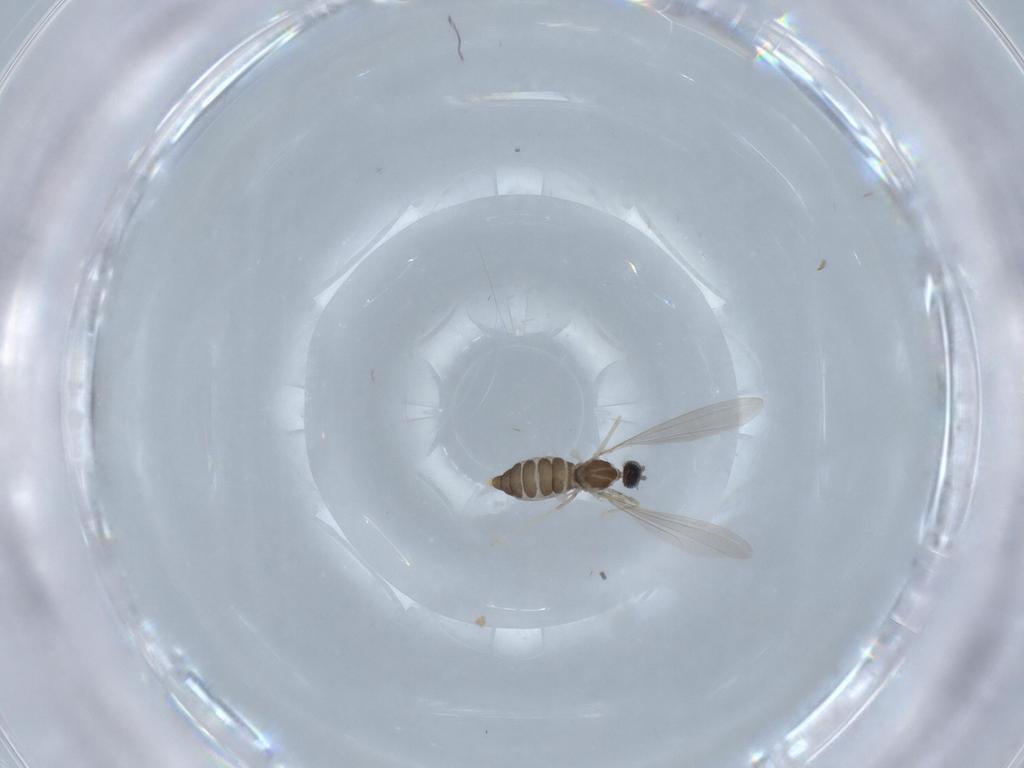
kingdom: Animalia
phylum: Arthropoda
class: Insecta
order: Diptera
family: Cecidomyiidae
